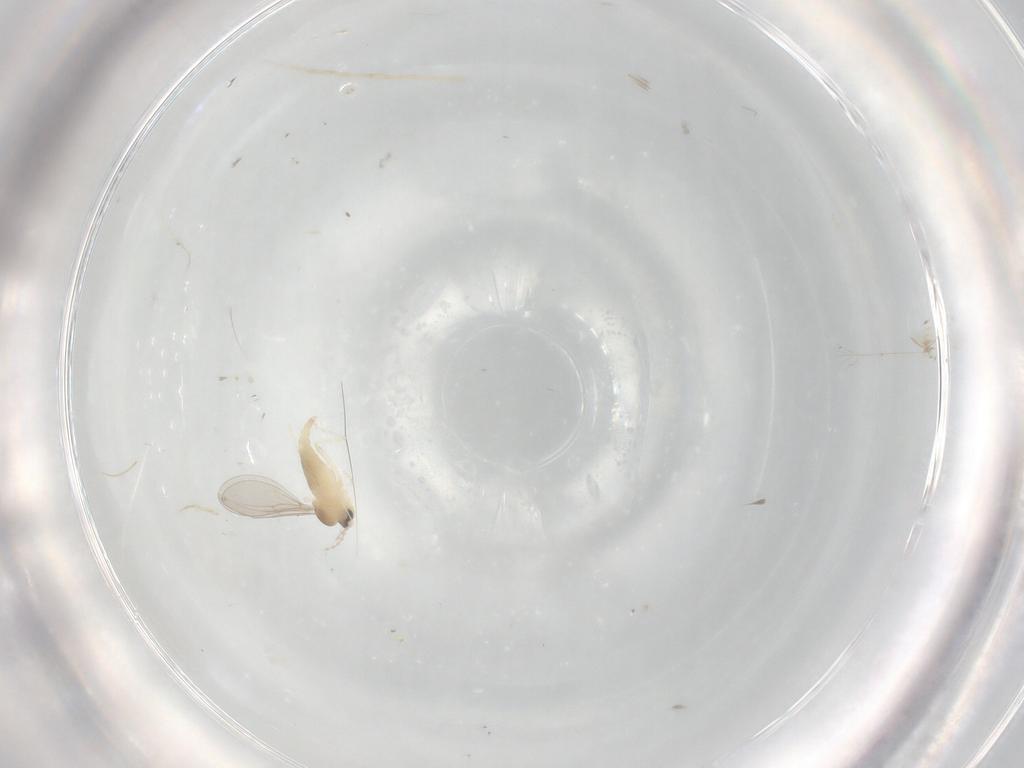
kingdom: Animalia
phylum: Arthropoda
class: Insecta
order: Diptera
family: Cecidomyiidae
